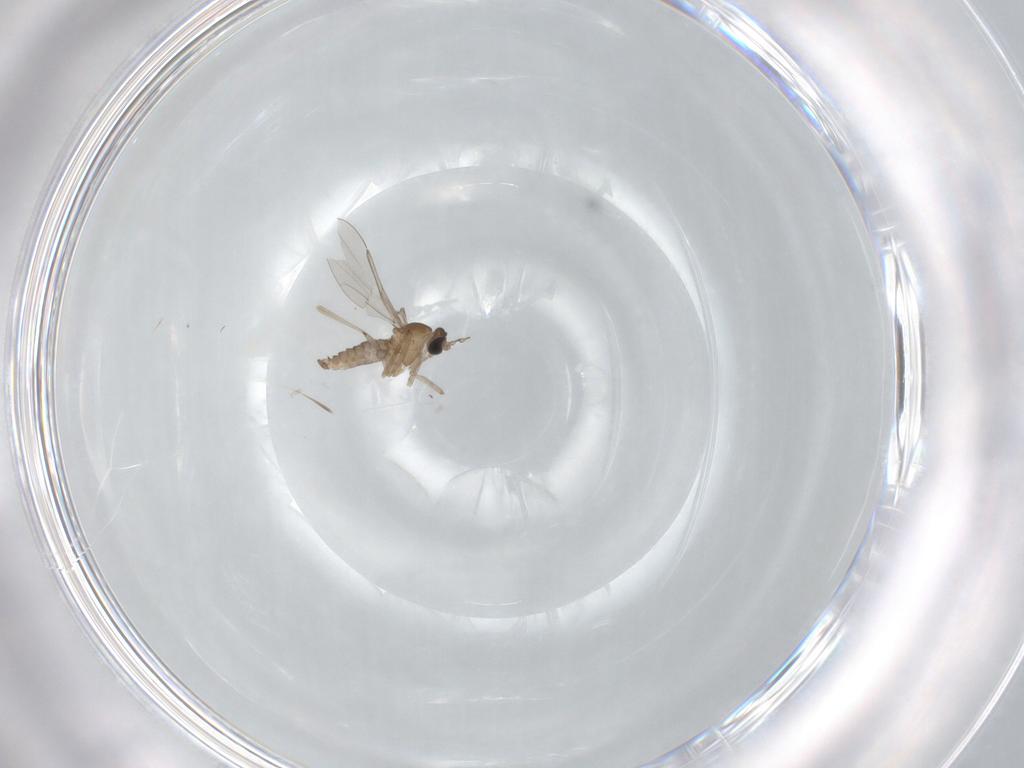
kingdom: Animalia
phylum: Arthropoda
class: Insecta
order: Diptera
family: Cecidomyiidae
